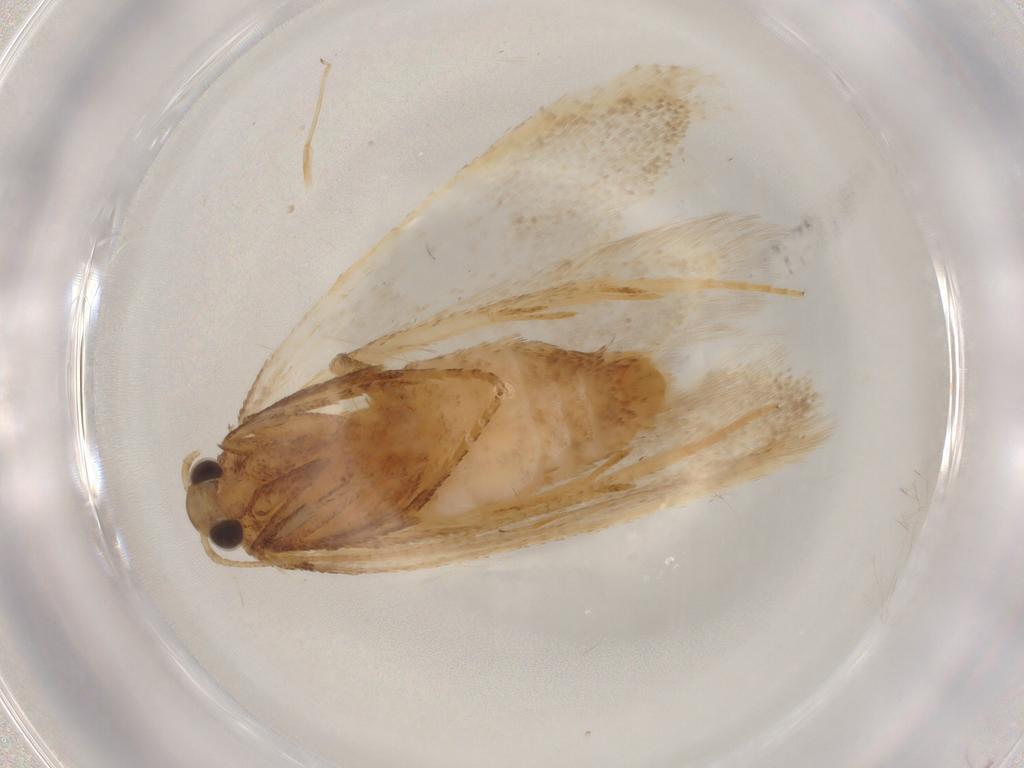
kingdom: Animalia
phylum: Arthropoda
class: Insecta
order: Lepidoptera
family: Autostichidae
